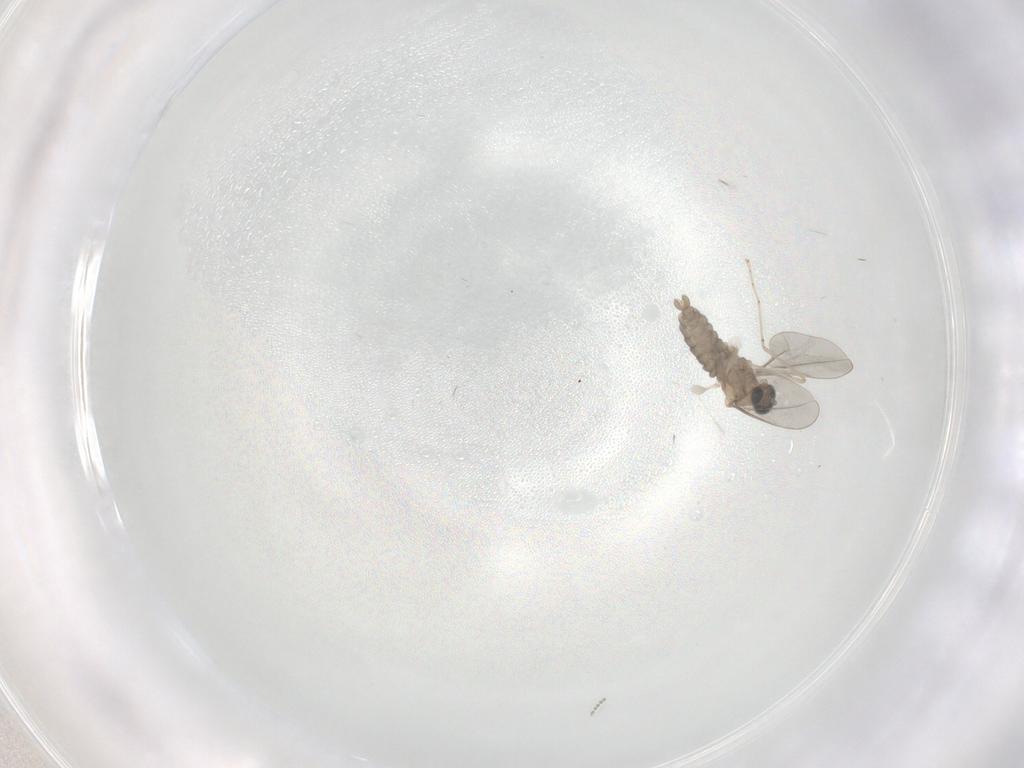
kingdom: Animalia
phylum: Arthropoda
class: Insecta
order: Diptera
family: Psychodidae
